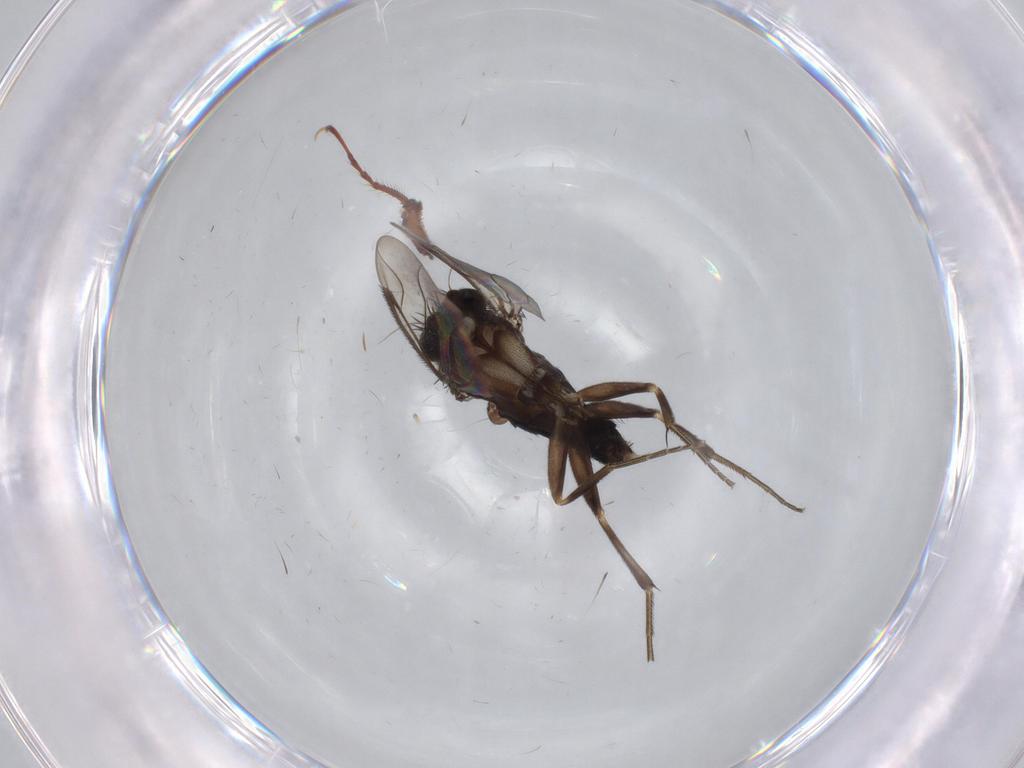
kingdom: Animalia
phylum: Arthropoda
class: Insecta
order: Diptera
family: Phoridae
